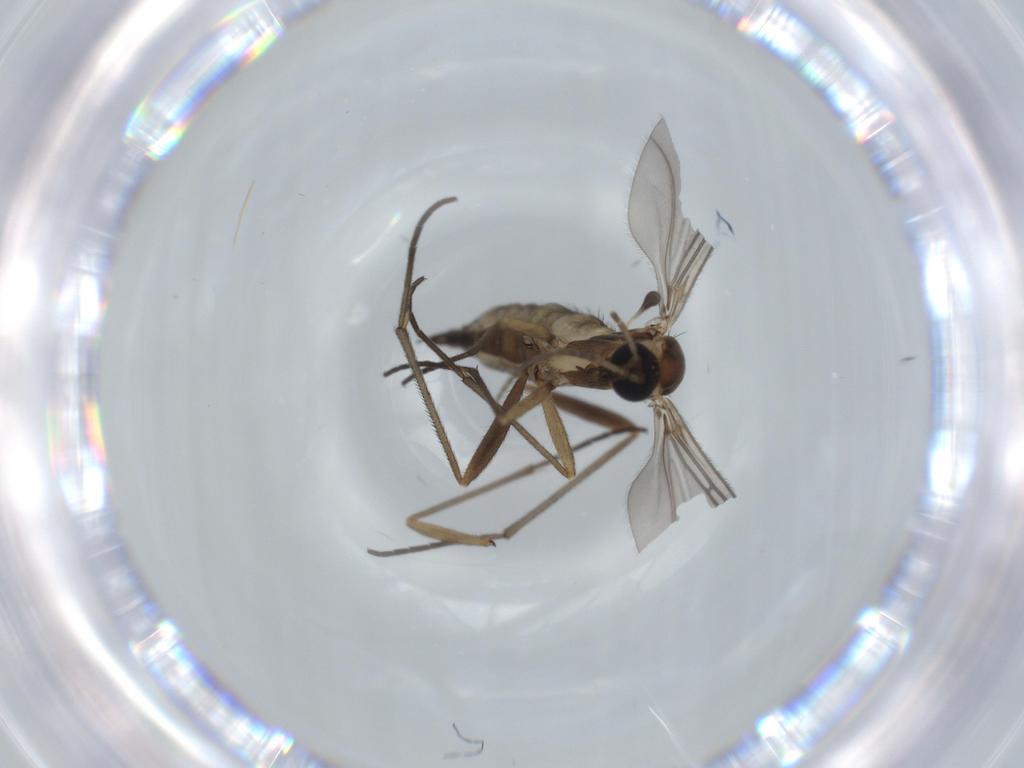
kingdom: Animalia
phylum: Arthropoda
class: Insecta
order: Diptera
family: Sciaridae
